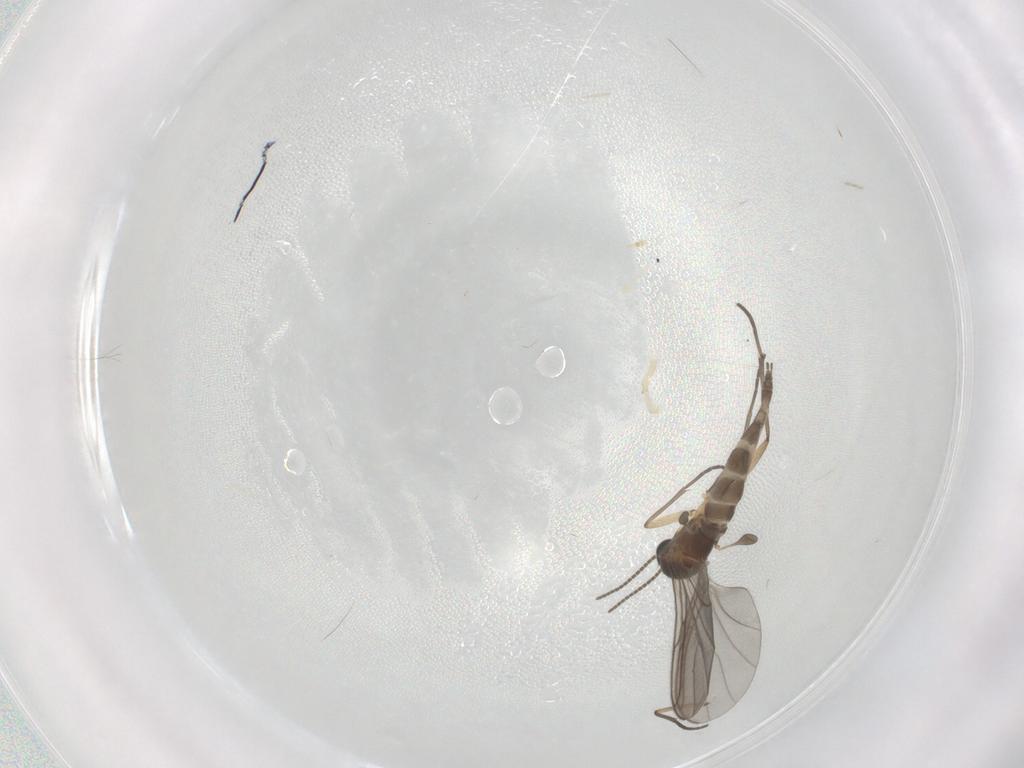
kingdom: Animalia
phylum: Arthropoda
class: Insecta
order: Diptera
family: Sciaridae
